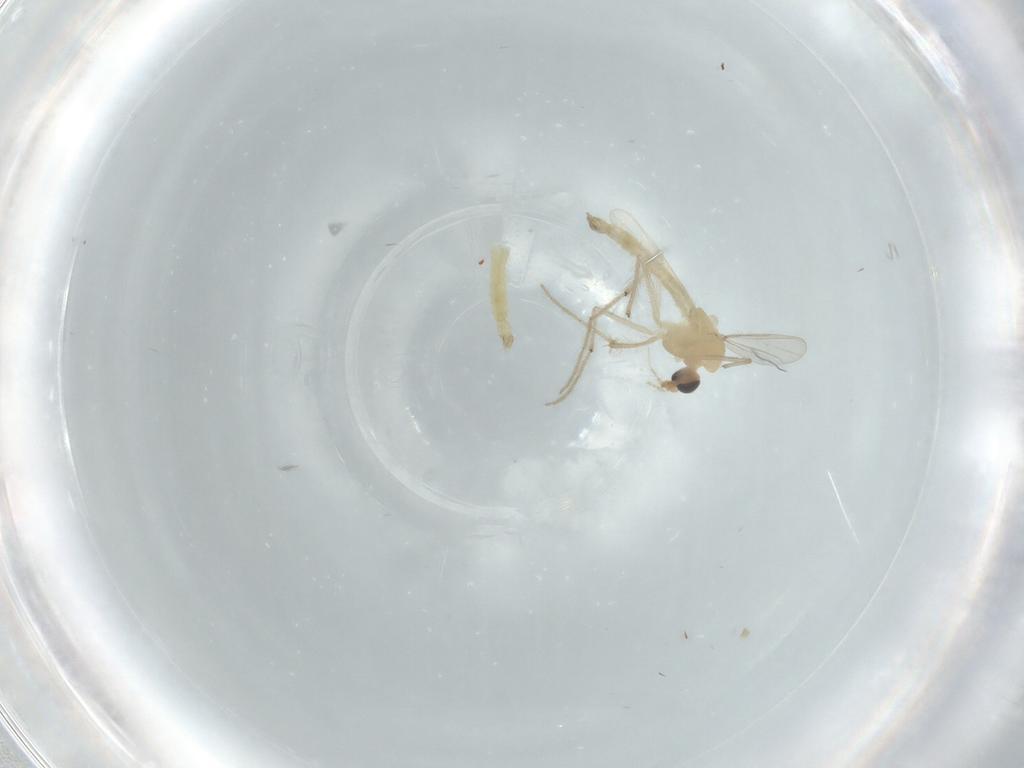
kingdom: Animalia
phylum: Arthropoda
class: Insecta
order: Diptera
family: Chironomidae
